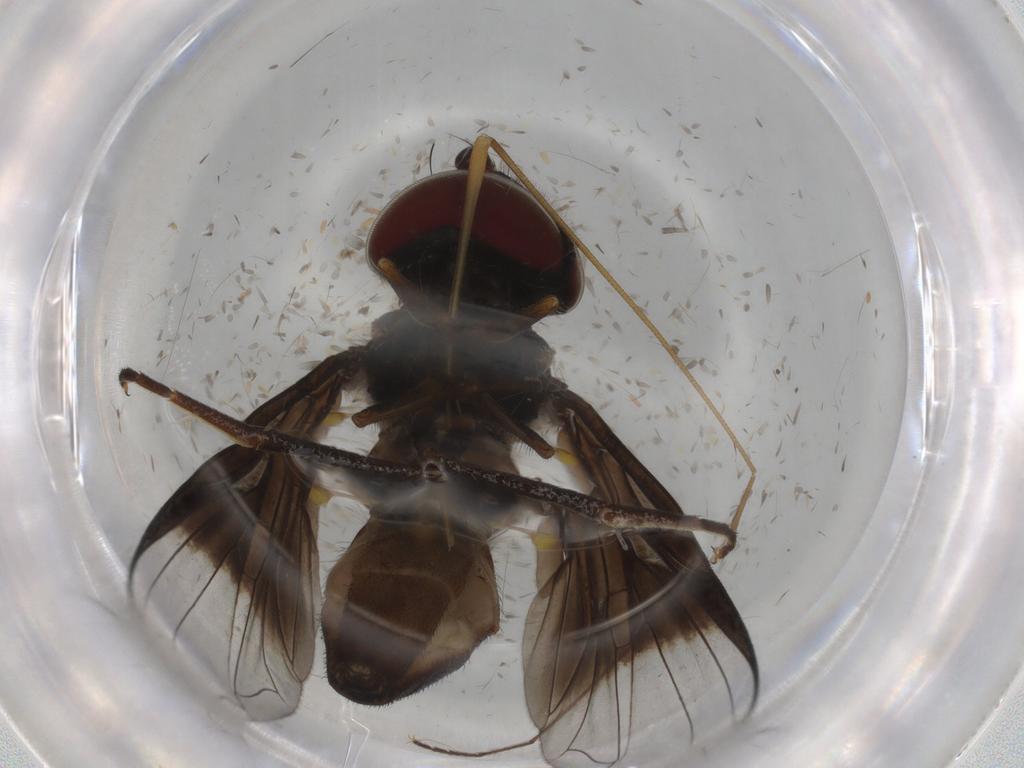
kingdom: Animalia
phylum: Arthropoda
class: Insecta
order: Diptera
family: Syrphidae
